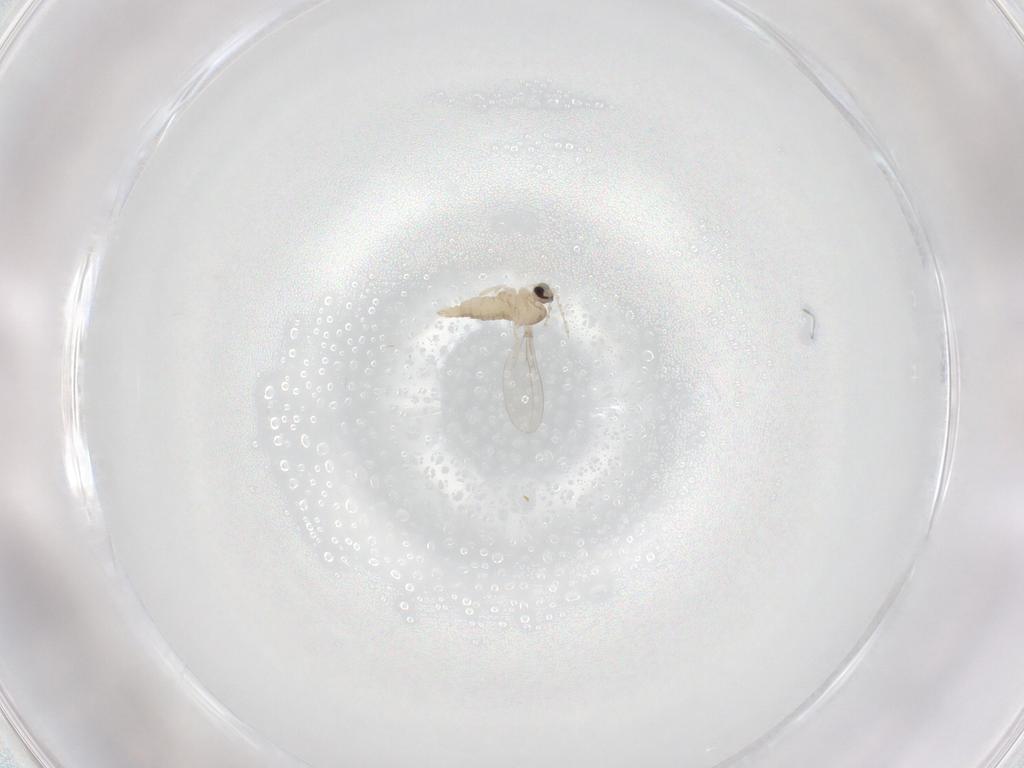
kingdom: Animalia
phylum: Arthropoda
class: Insecta
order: Diptera
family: Cecidomyiidae
